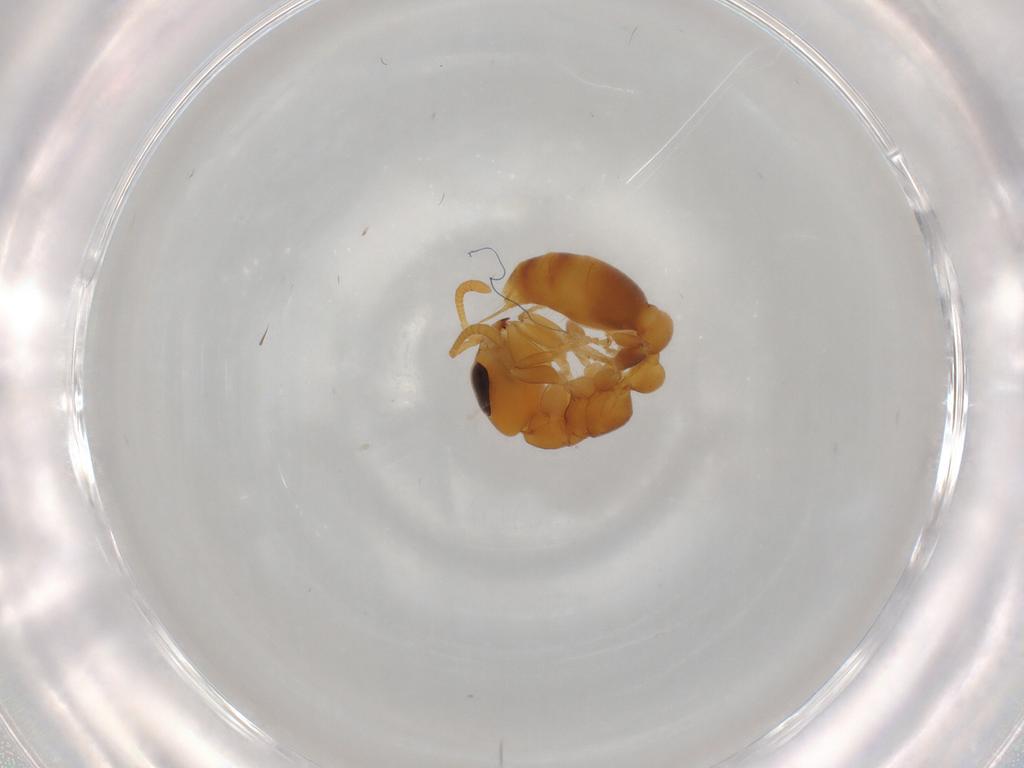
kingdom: Animalia
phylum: Arthropoda
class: Insecta
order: Hymenoptera
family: Formicidae
